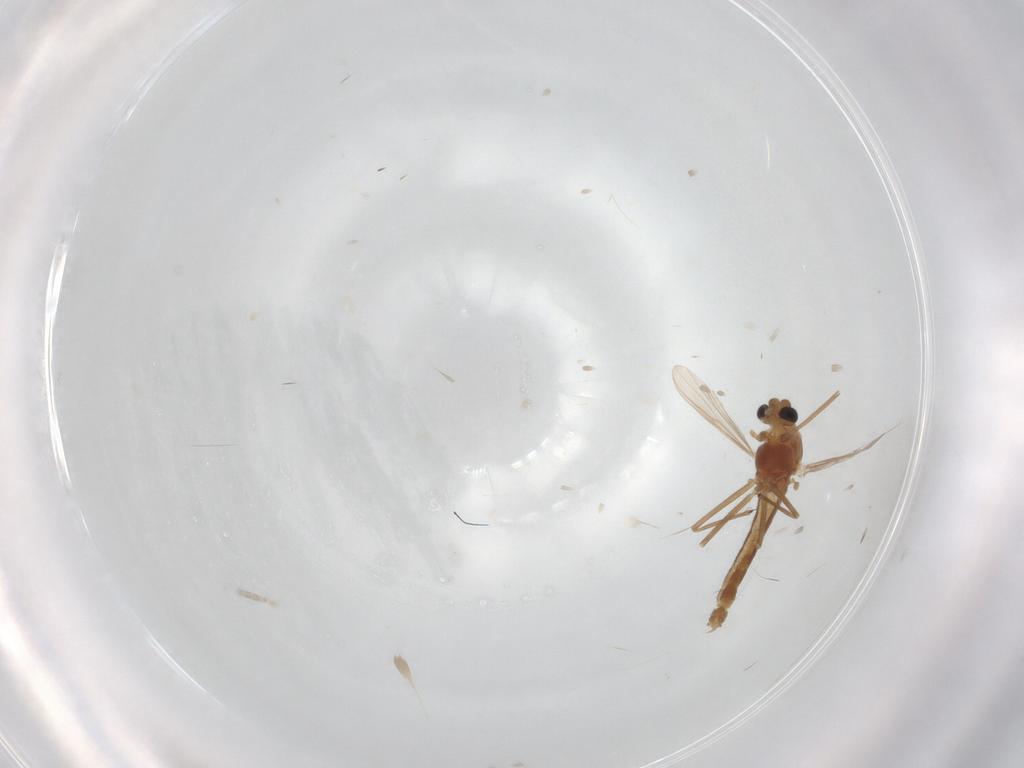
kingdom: Animalia
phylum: Arthropoda
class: Insecta
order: Diptera
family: Chironomidae
